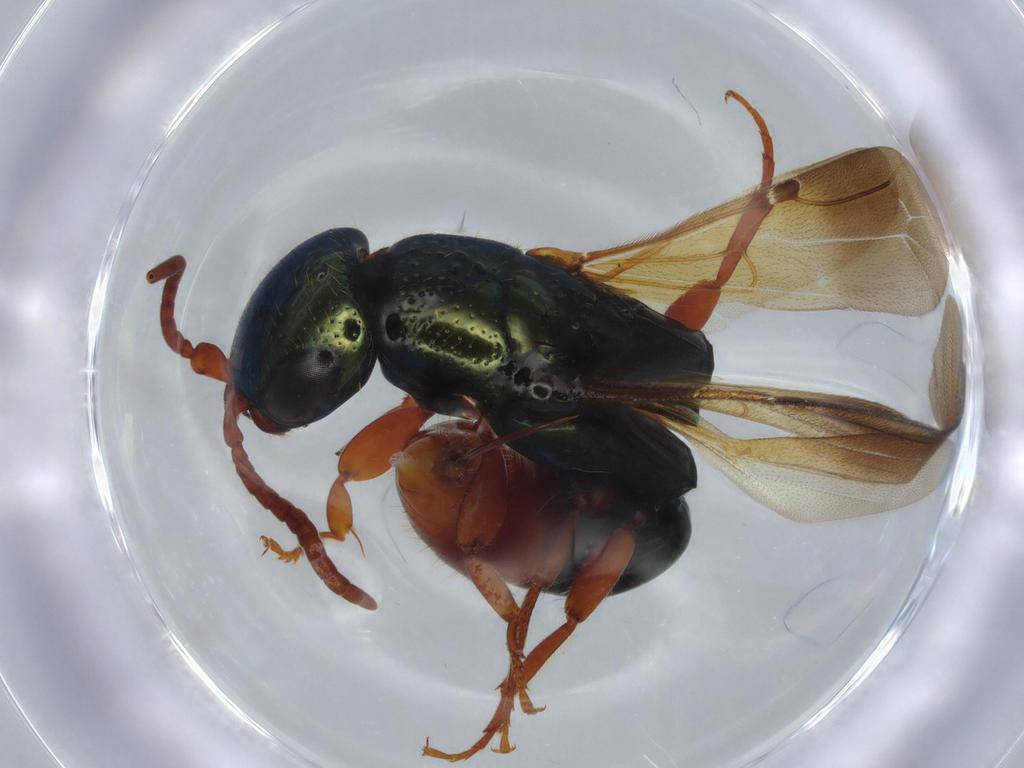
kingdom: Animalia
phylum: Arthropoda
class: Insecta
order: Hymenoptera
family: Bethylidae
